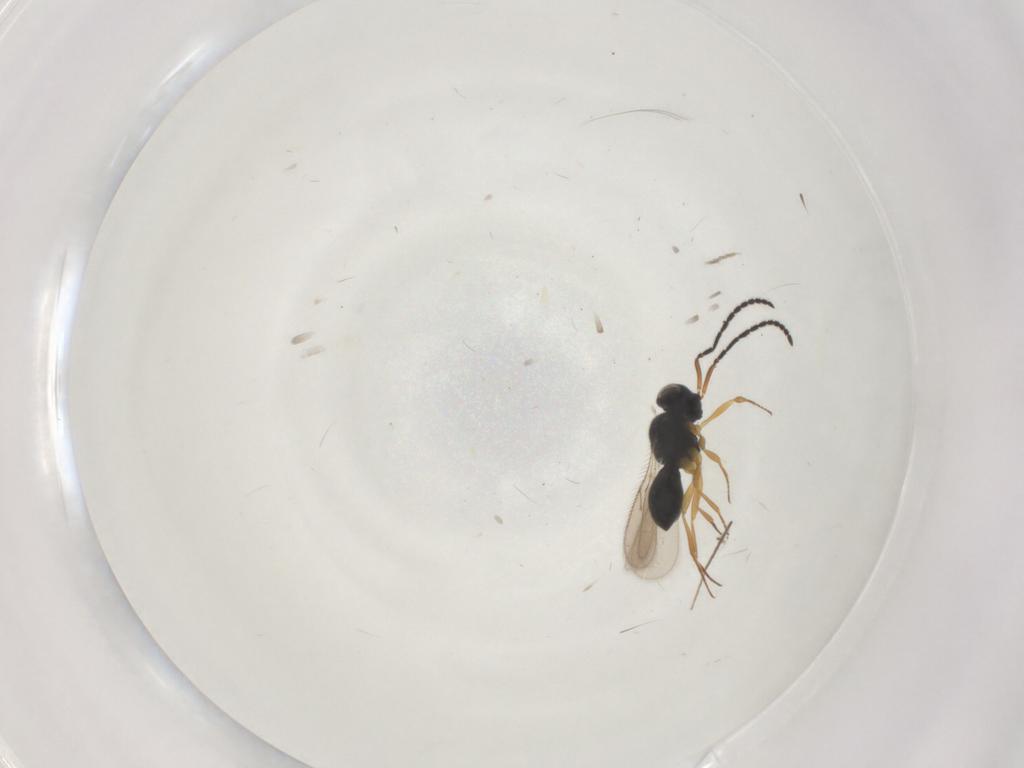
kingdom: Animalia
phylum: Arthropoda
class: Insecta
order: Hymenoptera
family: Scelionidae
